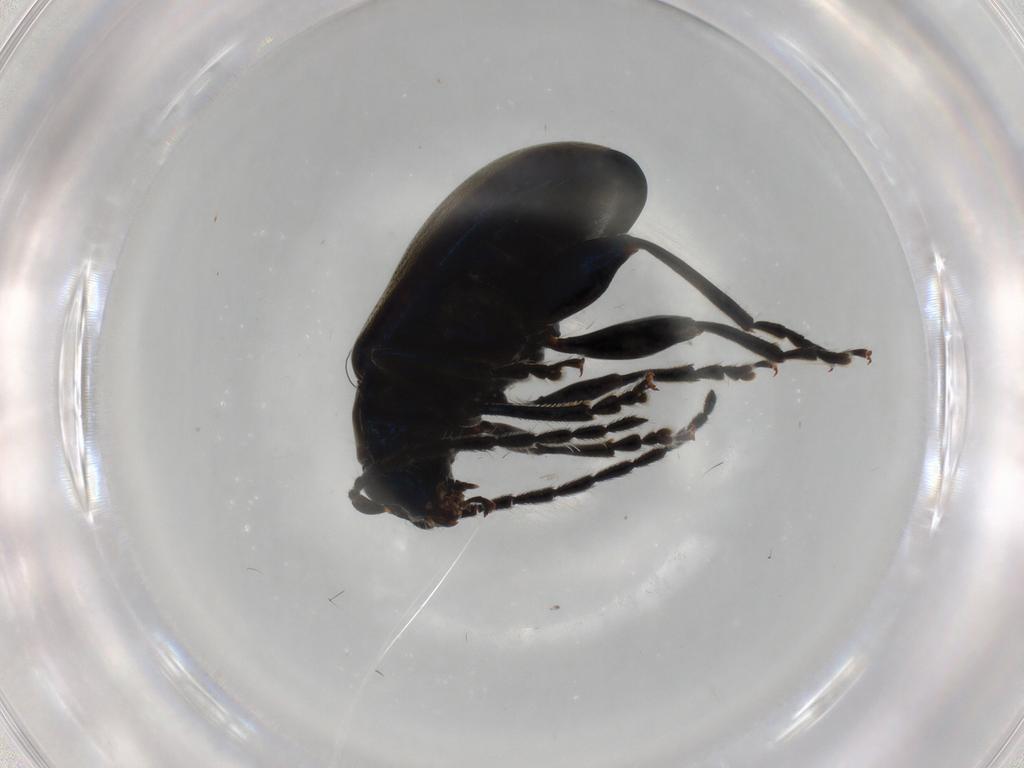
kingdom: Animalia
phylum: Arthropoda
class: Insecta
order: Coleoptera
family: Chrysomelidae
